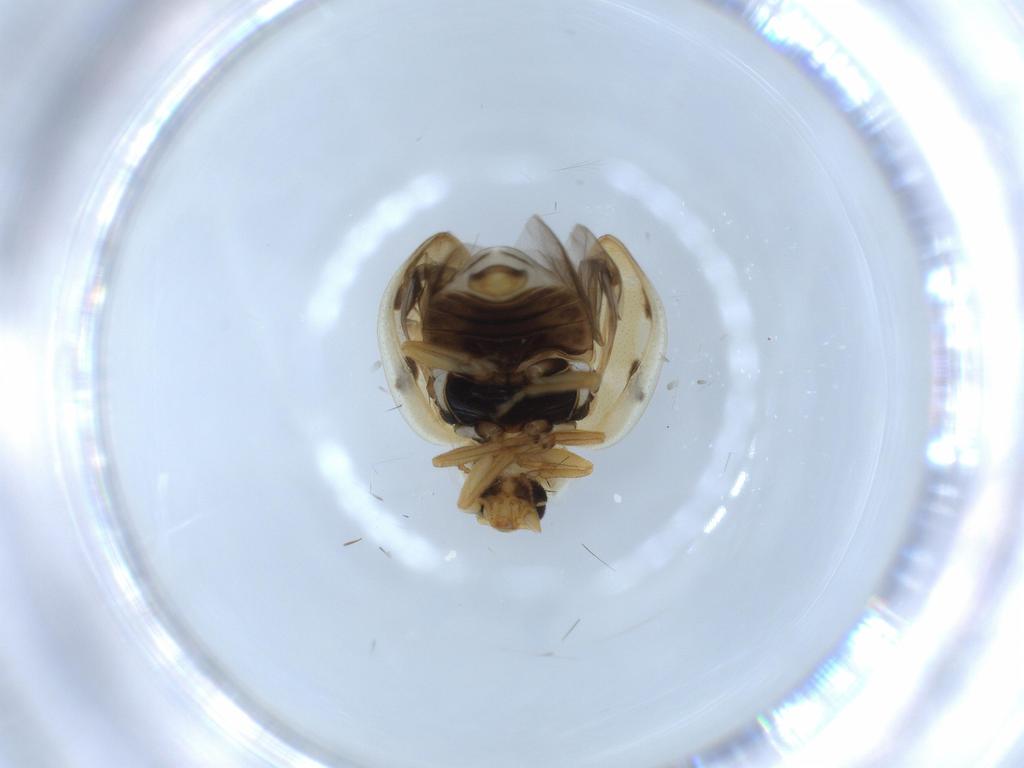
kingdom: Animalia
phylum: Arthropoda
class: Insecta
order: Coleoptera
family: Coccinellidae
